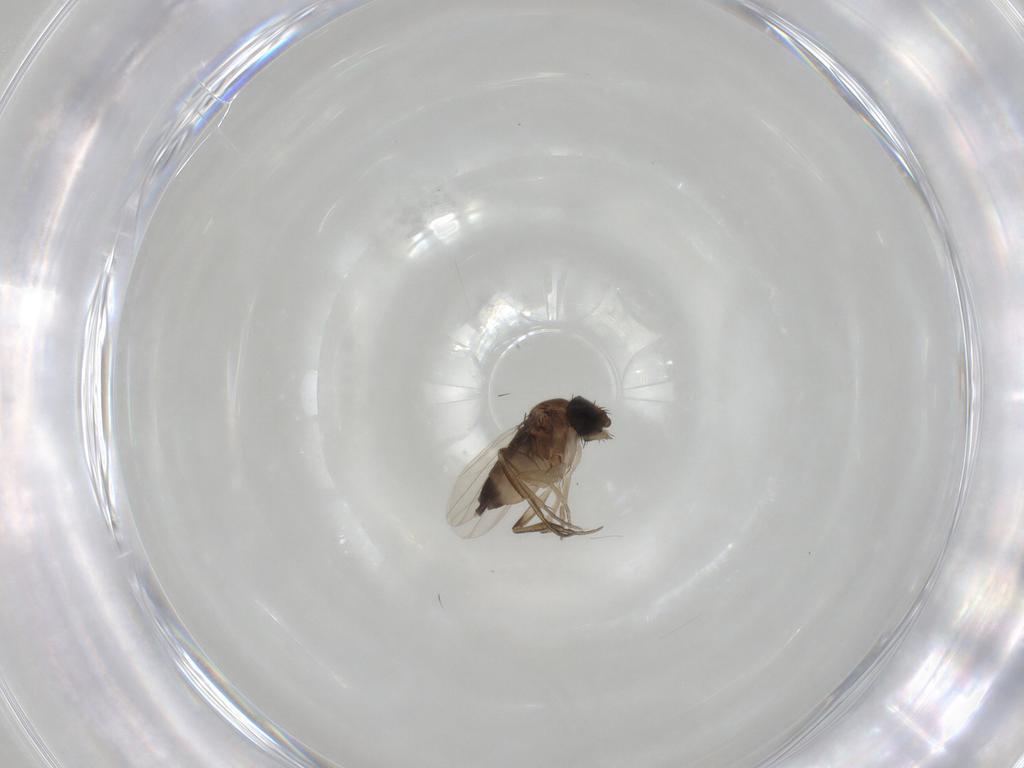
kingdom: Animalia
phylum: Arthropoda
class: Insecta
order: Diptera
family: Phoridae
